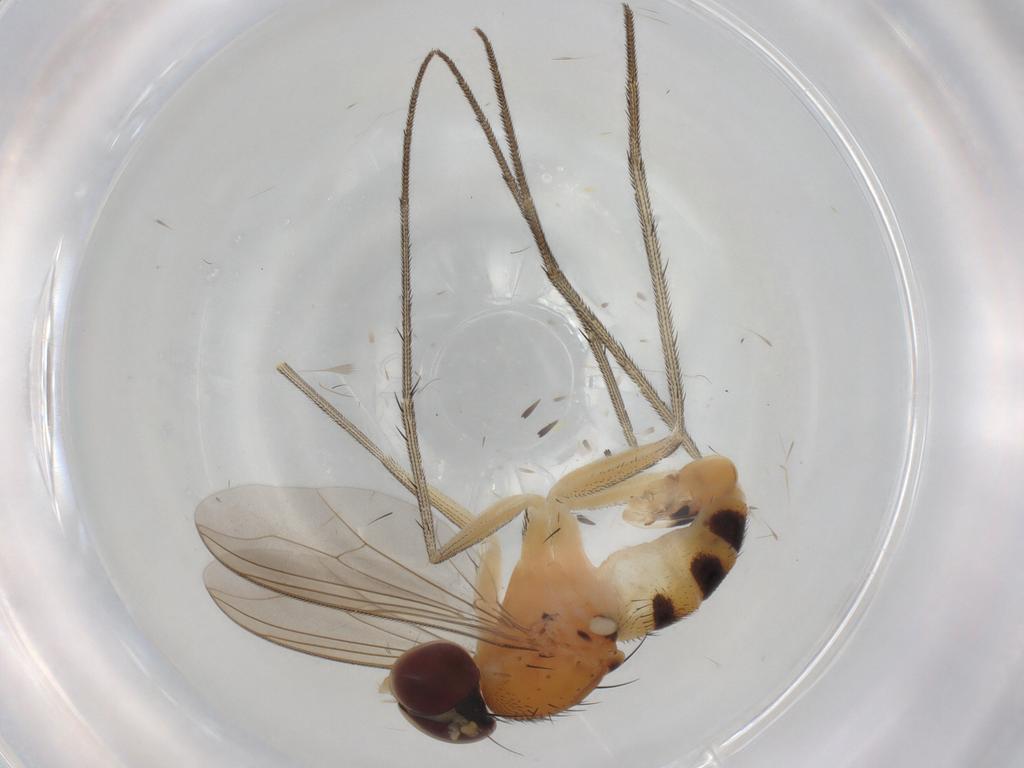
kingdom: Animalia
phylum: Arthropoda
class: Insecta
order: Diptera
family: Dolichopodidae
